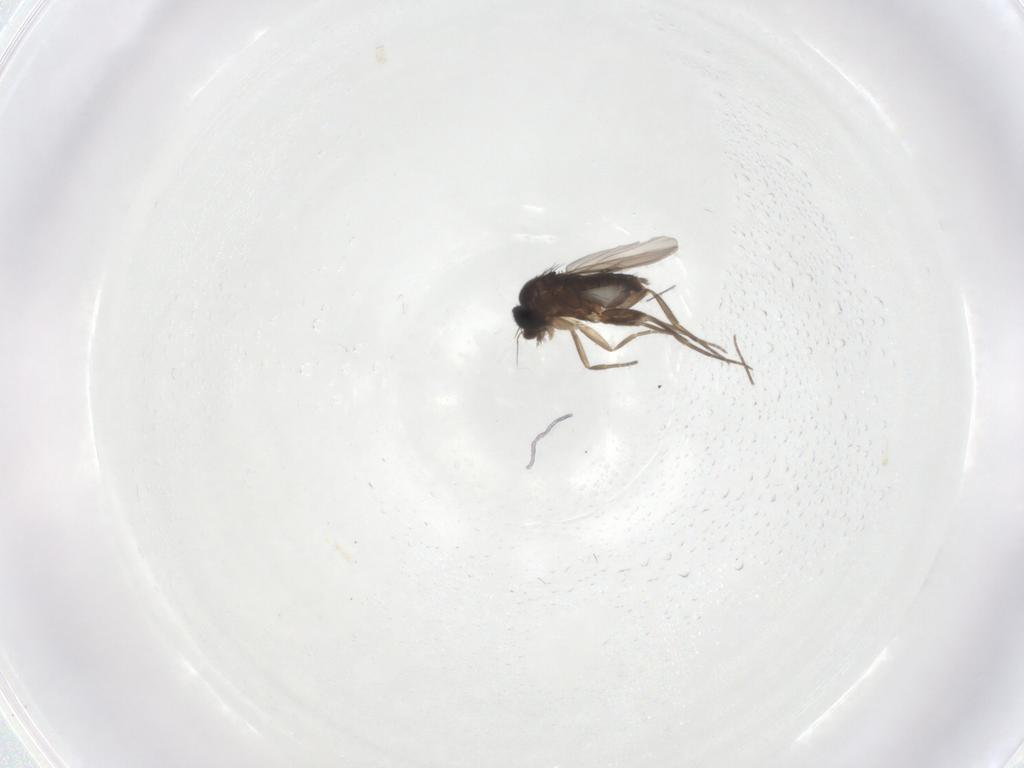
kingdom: Animalia
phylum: Arthropoda
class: Insecta
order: Diptera
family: Phoridae
